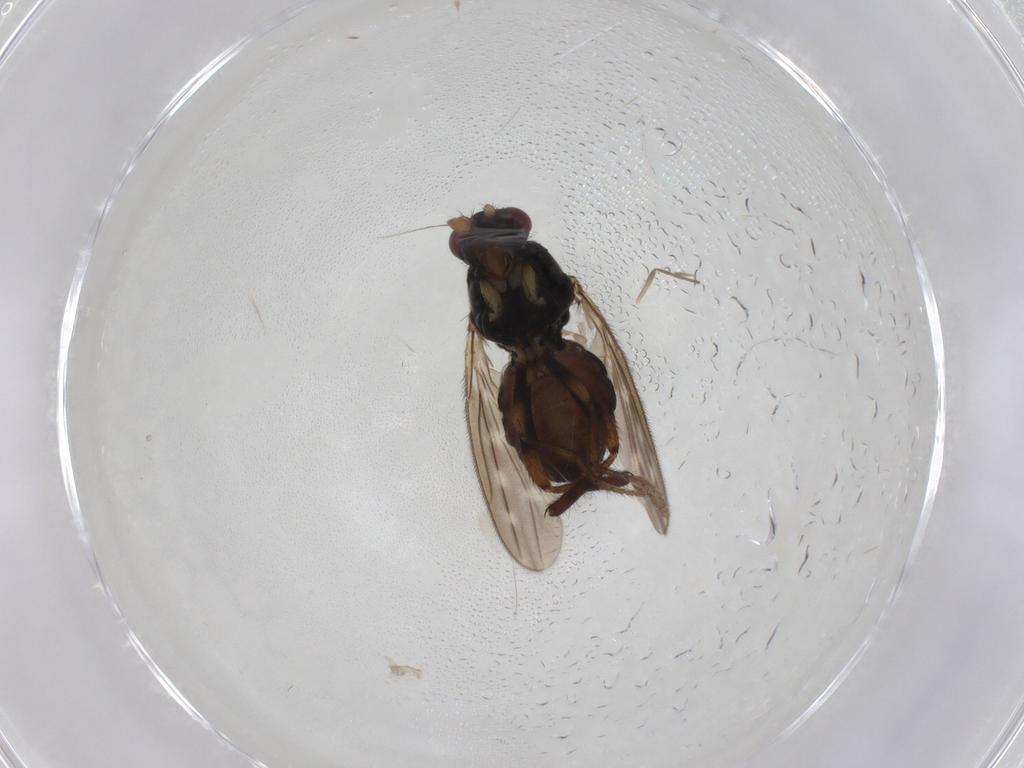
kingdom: Animalia
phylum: Arthropoda
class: Insecta
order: Diptera
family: Sphaeroceridae
